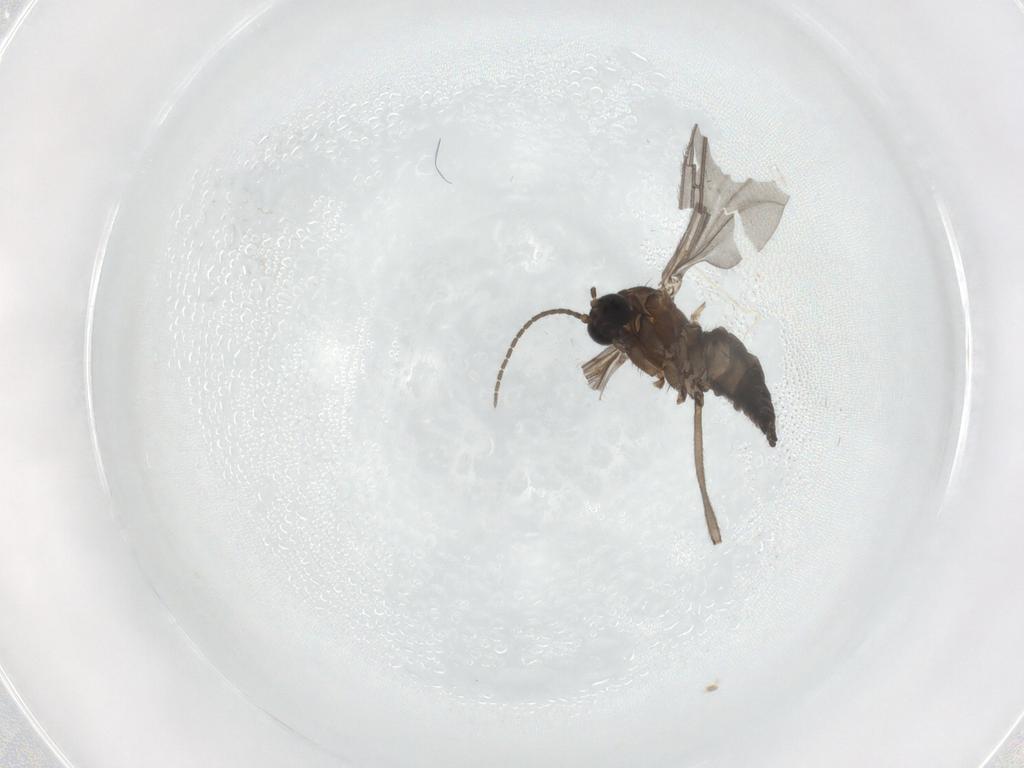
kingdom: Animalia
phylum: Arthropoda
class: Insecta
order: Diptera
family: Sciaridae
